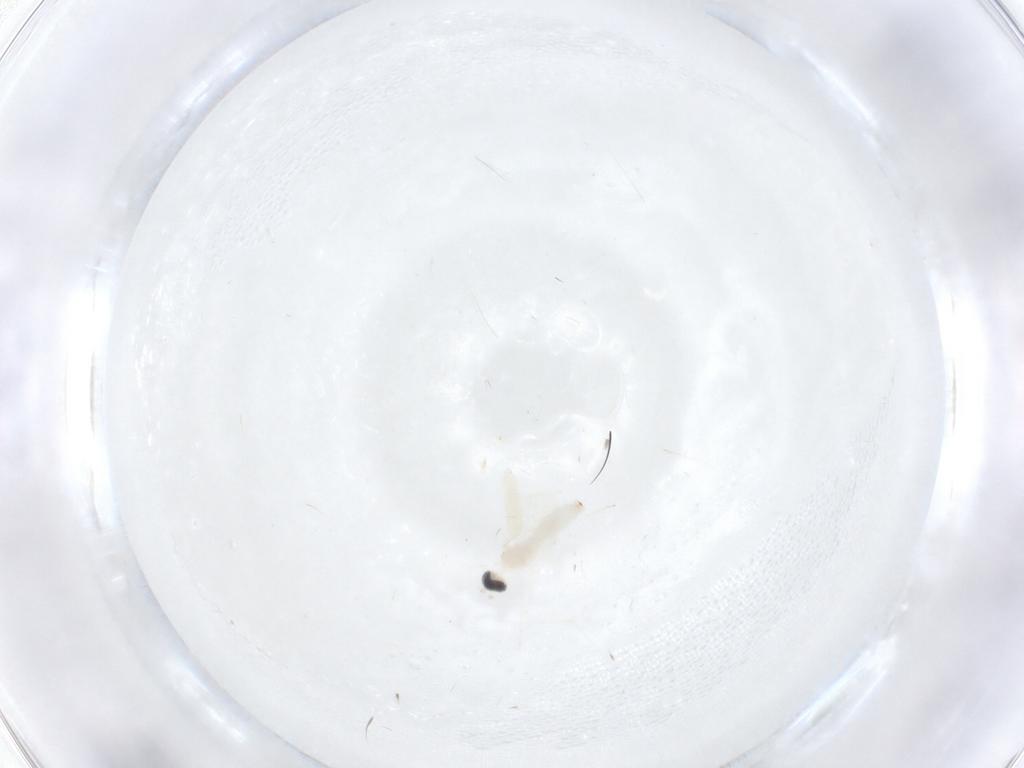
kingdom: Animalia
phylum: Arthropoda
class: Insecta
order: Diptera
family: Cecidomyiidae
